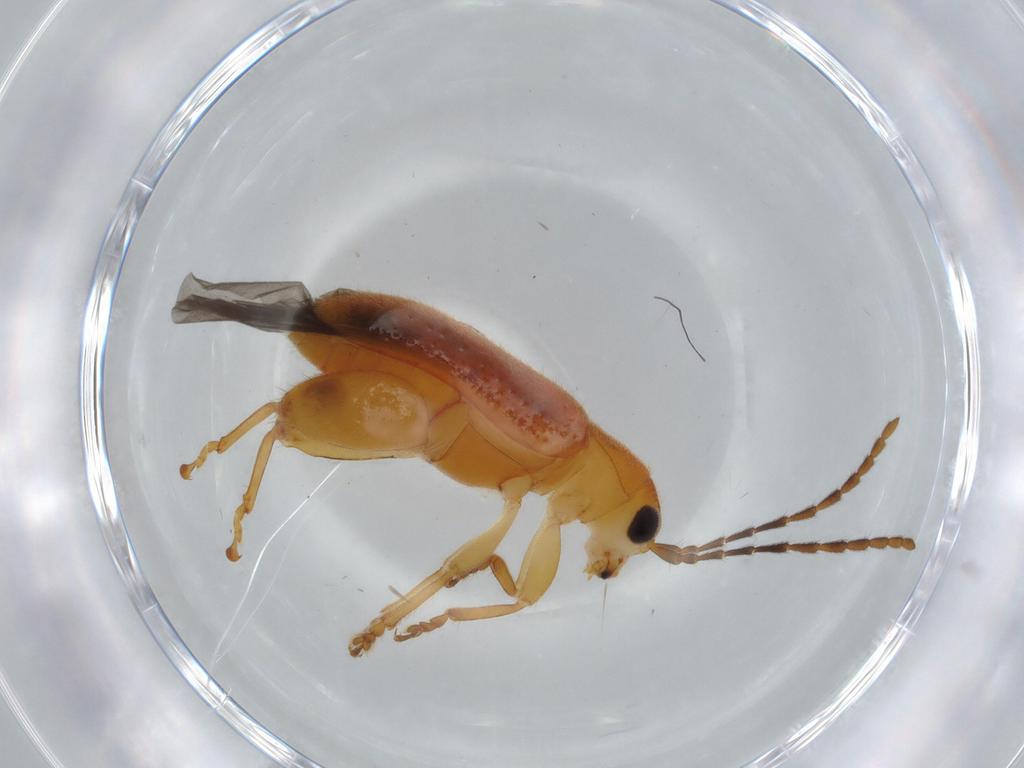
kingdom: Animalia
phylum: Arthropoda
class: Insecta
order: Coleoptera
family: Chrysomelidae
